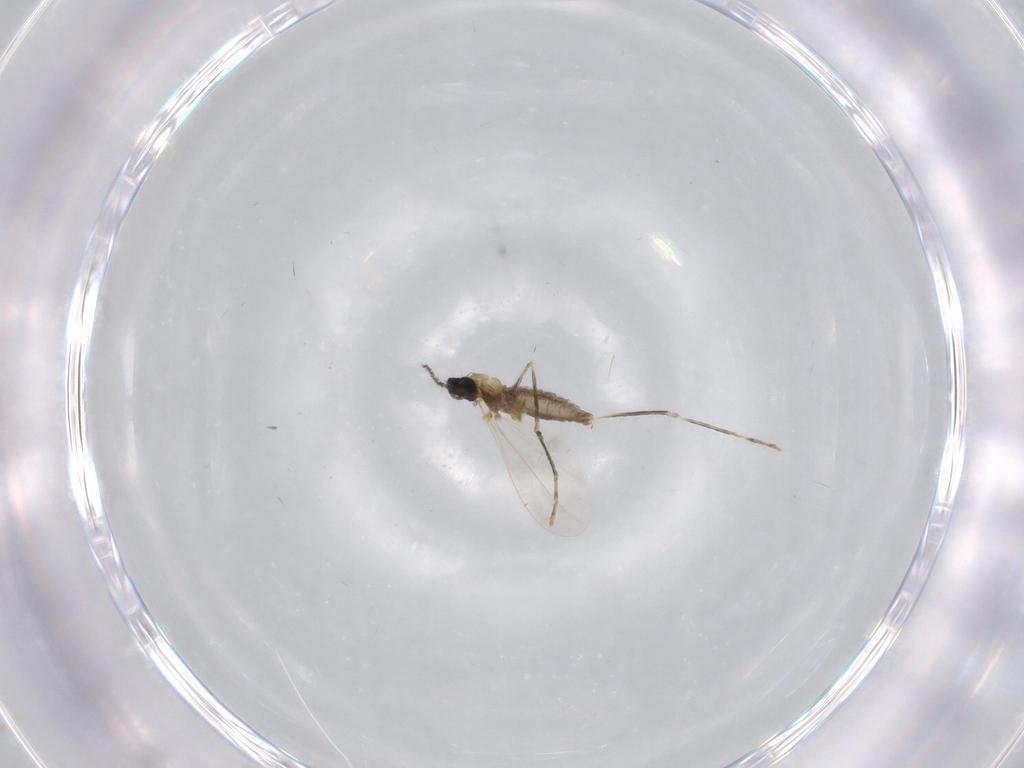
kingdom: Animalia
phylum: Arthropoda
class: Insecta
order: Diptera
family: Cecidomyiidae
